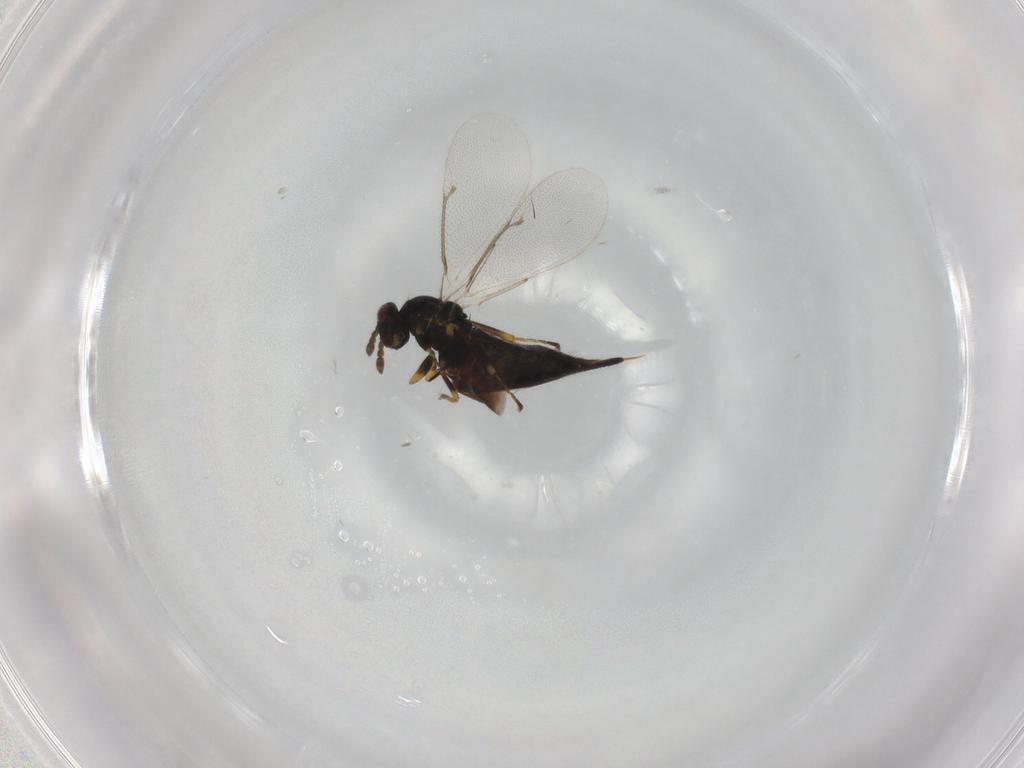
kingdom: Animalia
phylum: Arthropoda
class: Insecta
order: Hymenoptera
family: Eulophidae
